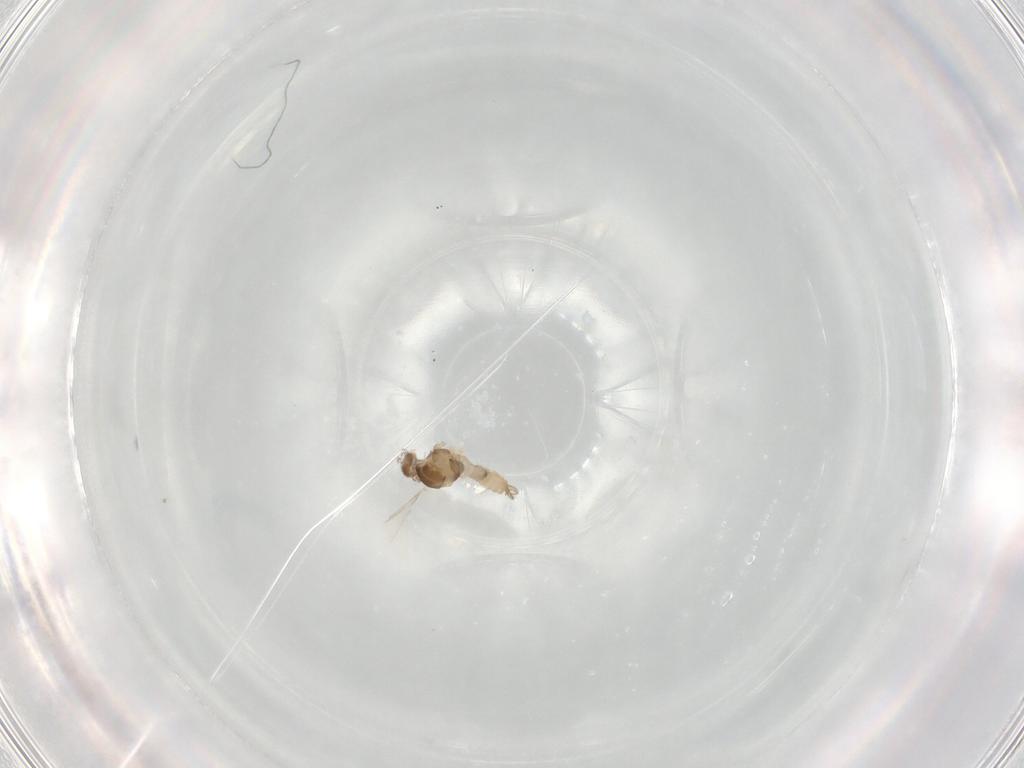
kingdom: Animalia
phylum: Arthropoda
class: Insecta
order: Diptera
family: Cecidomyiidae
